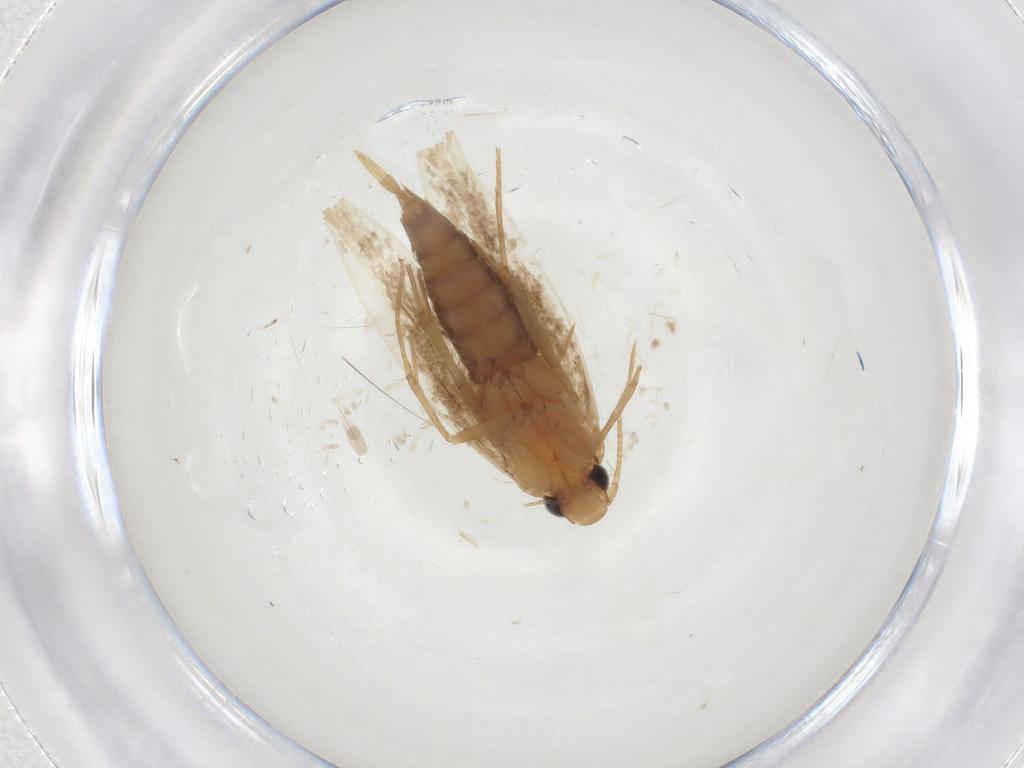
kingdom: Animalia
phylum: Arthropoda
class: Insecta
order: Lepidoptera
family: Tineidae
